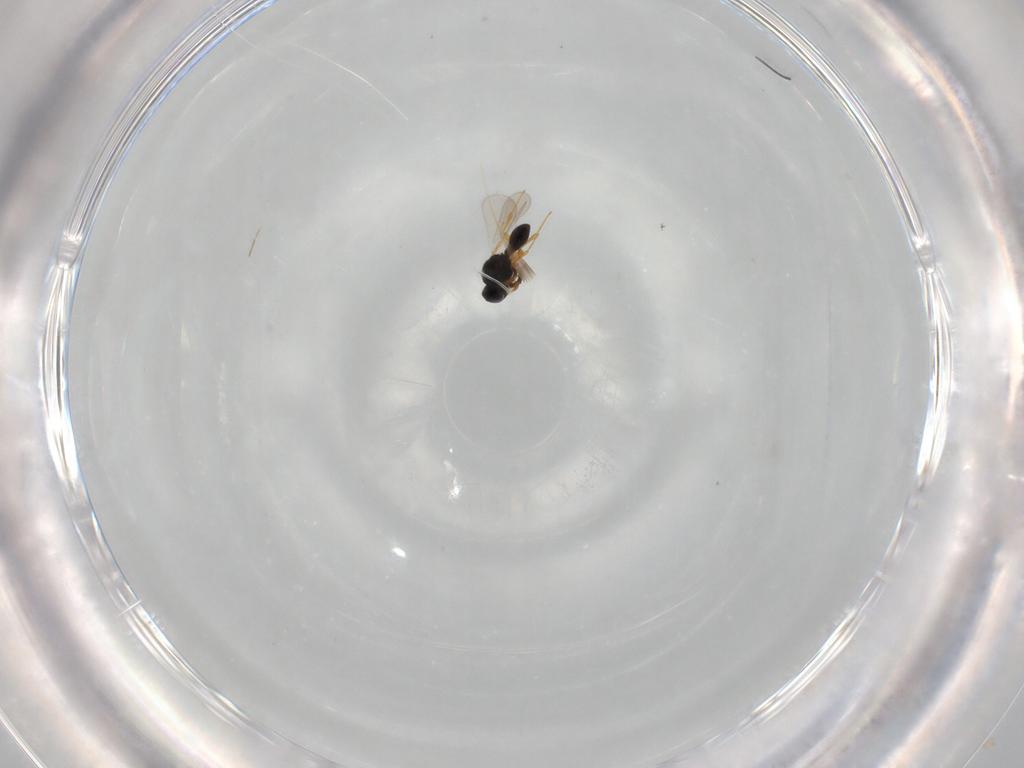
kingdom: Animalia
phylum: Arthropoda
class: Insecta
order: Hymenoptera
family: Platygastridae
